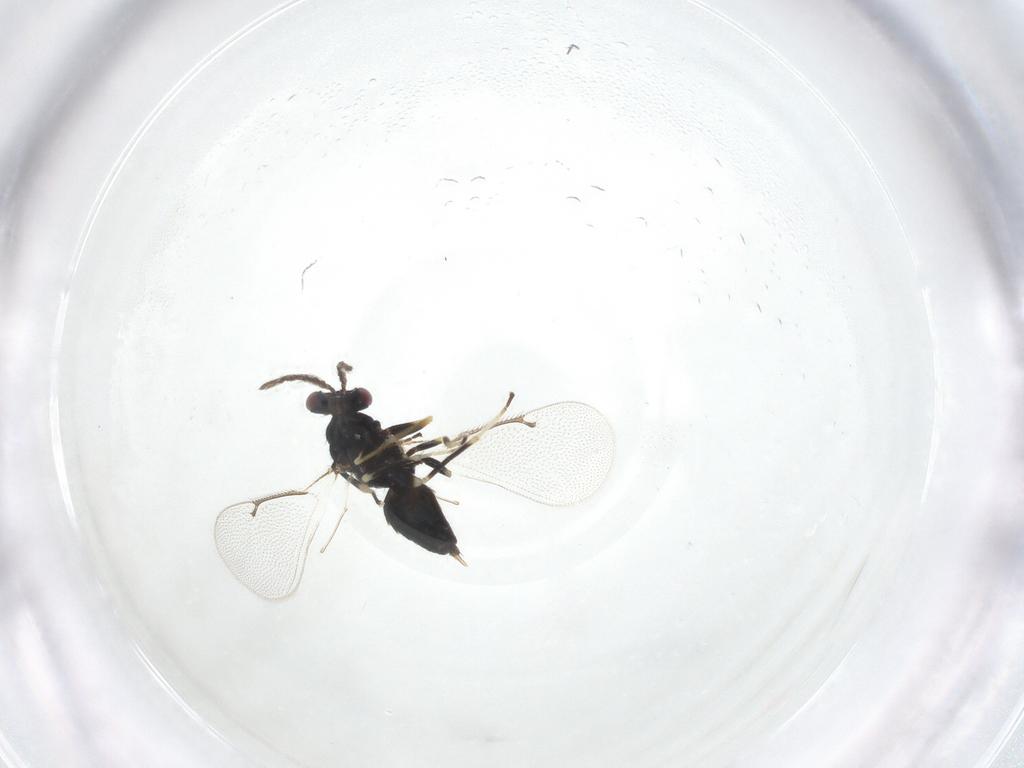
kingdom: Animalia
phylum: Arthropoda
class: Insecta
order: Hymenoptera
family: Eulophidae
